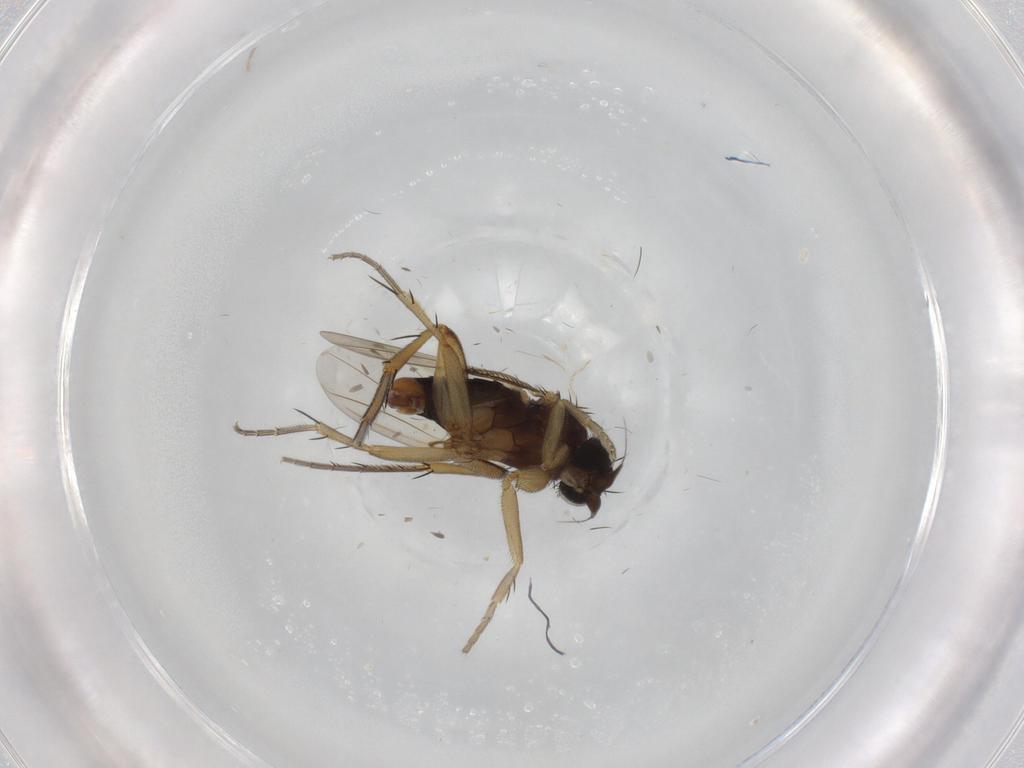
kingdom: Animalia
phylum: Arthropoda
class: Insecta
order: Diptera
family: Phoridae
